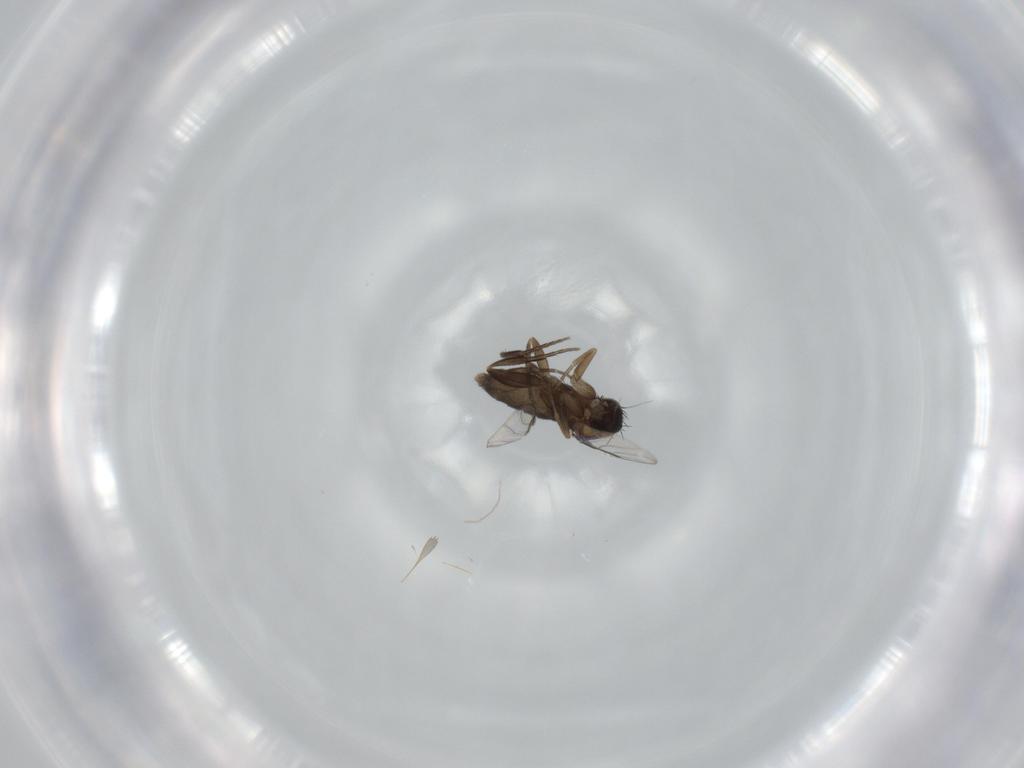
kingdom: Animalia
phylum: Arthropoda
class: Insecta
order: Diptera
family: Phoridae
